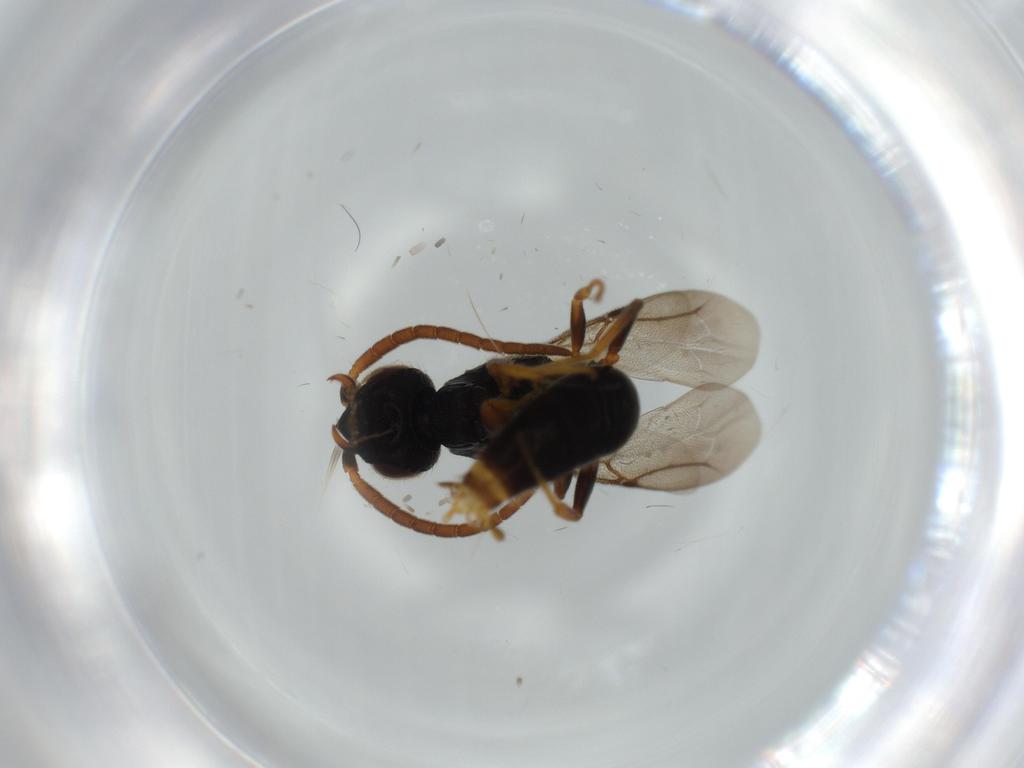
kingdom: Animalia
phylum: Arthropoda
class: Insecta
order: Hymenoptera
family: Bethylidae
